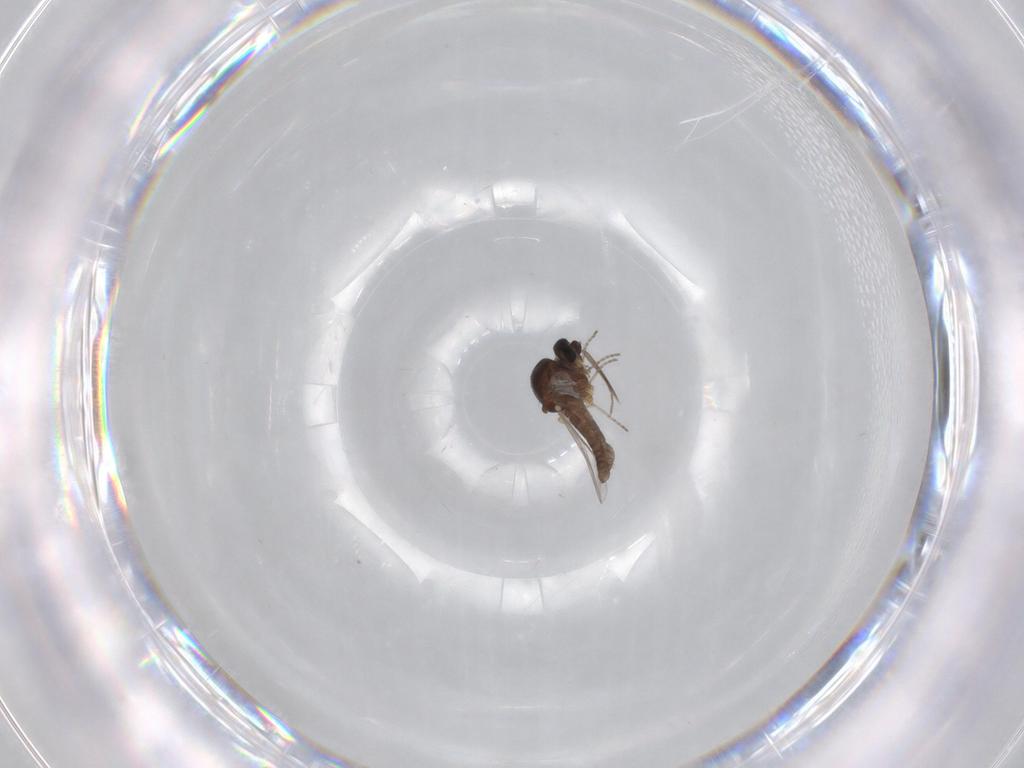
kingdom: Animalia
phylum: Arthropoda
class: Insecta
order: Diptera
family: Ceratopogonidae
